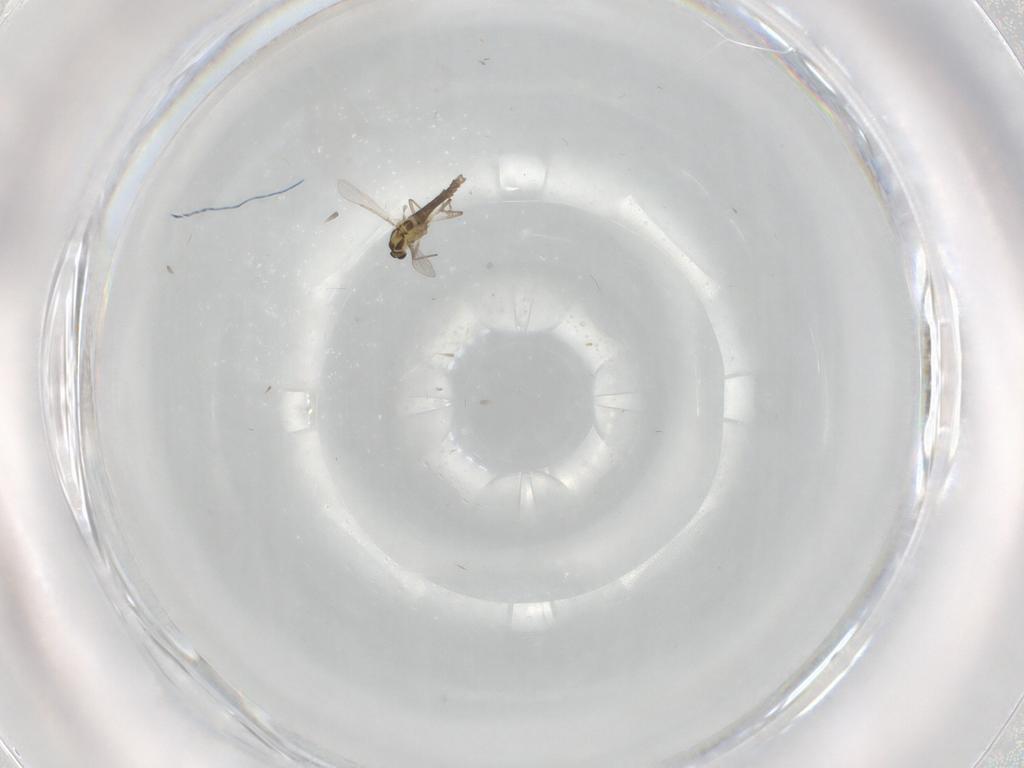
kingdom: Animalia
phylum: Arthropoda
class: Insecta
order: Diptera
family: Chironomidae
